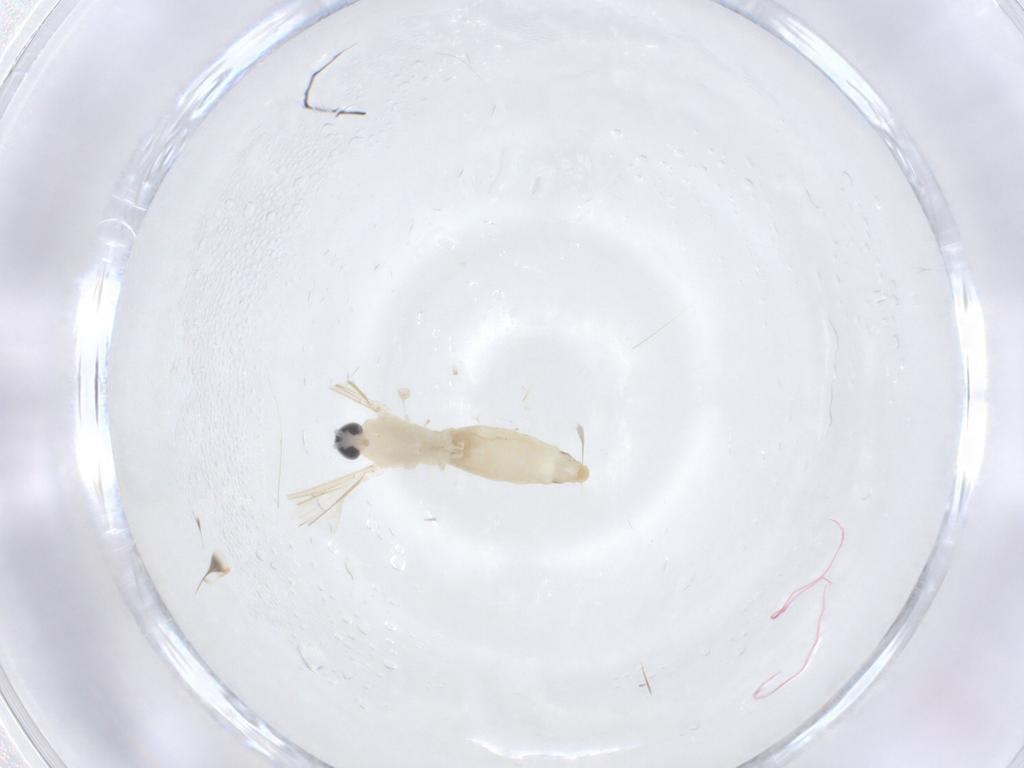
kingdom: Animalia
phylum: Arthropoda
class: Insecta
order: Diptera
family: Cecidomyiidae
